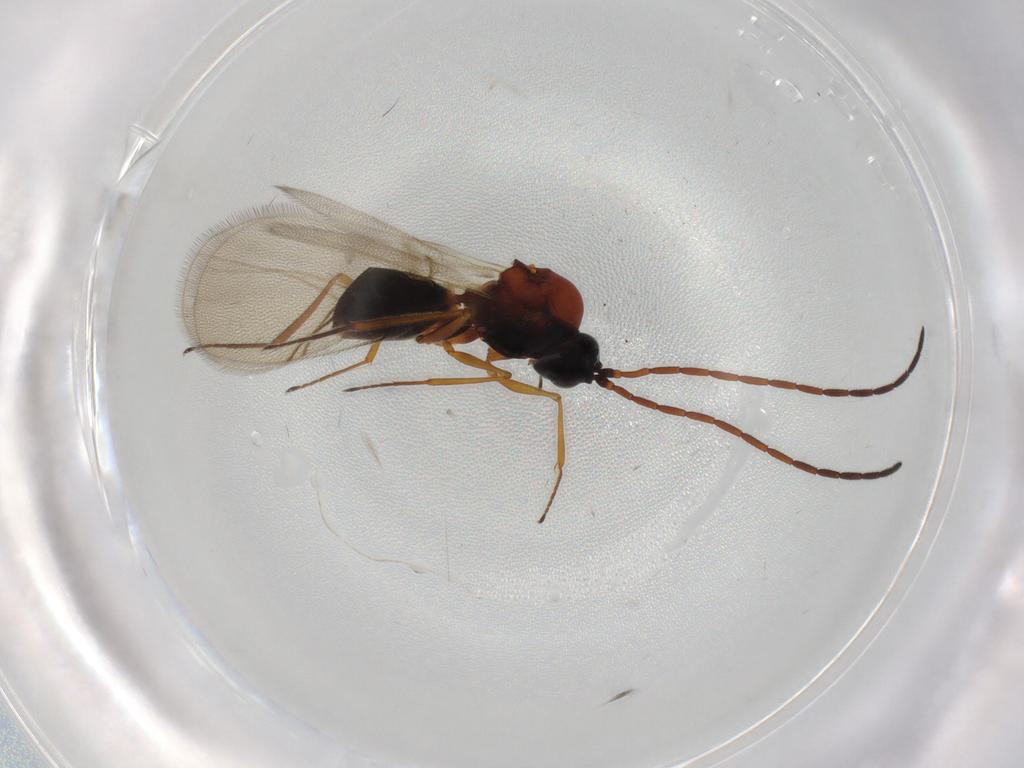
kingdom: Animalia
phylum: Arthropoda
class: Insecta
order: Hymenoptera
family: Figitidae
